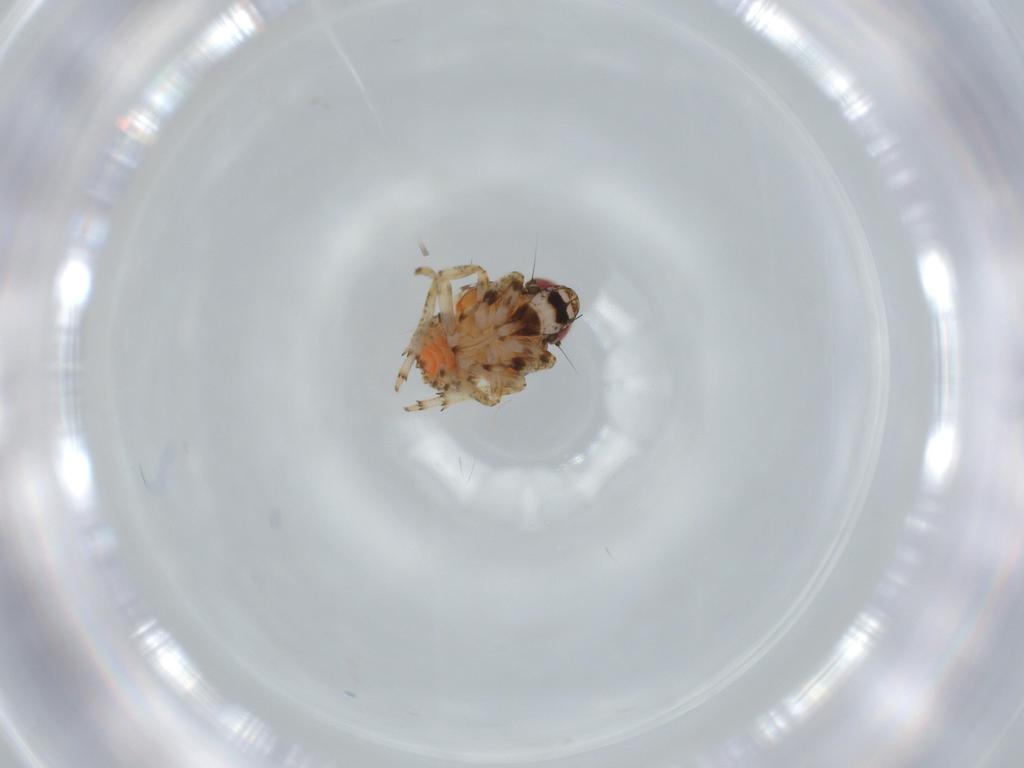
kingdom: Animalia
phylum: Arthropoda
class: Insecta
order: Hemiptera
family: Issidae
